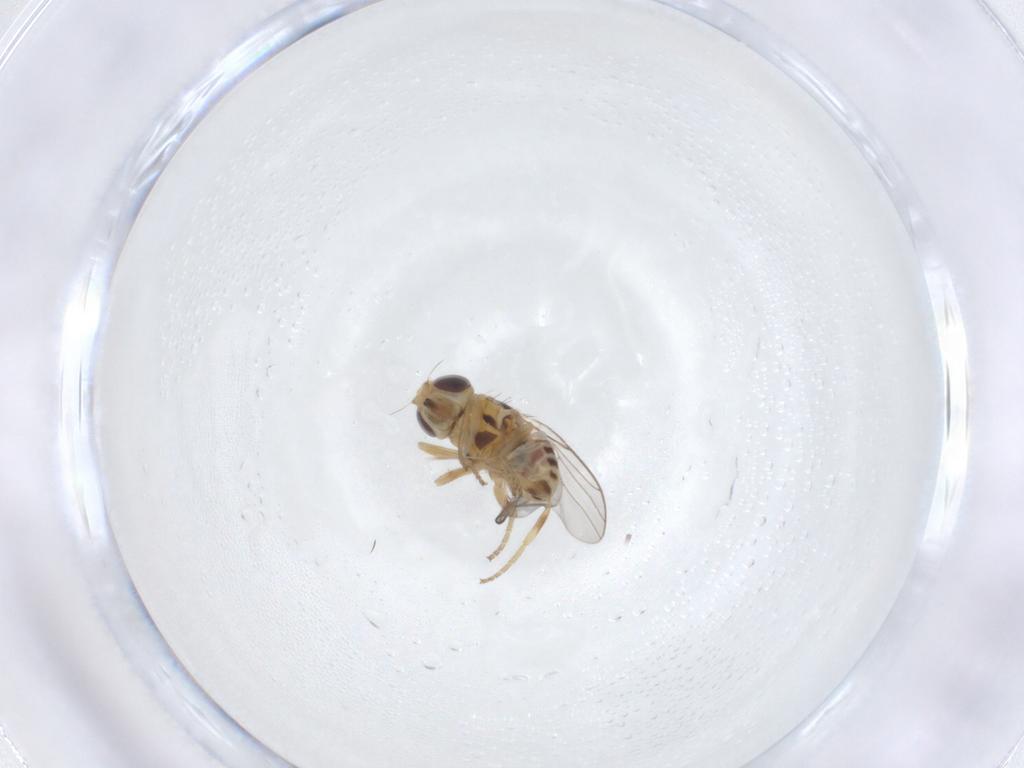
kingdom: Animalia
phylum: Arthropoda
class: Insecta
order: Diptera
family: Chloropidae
